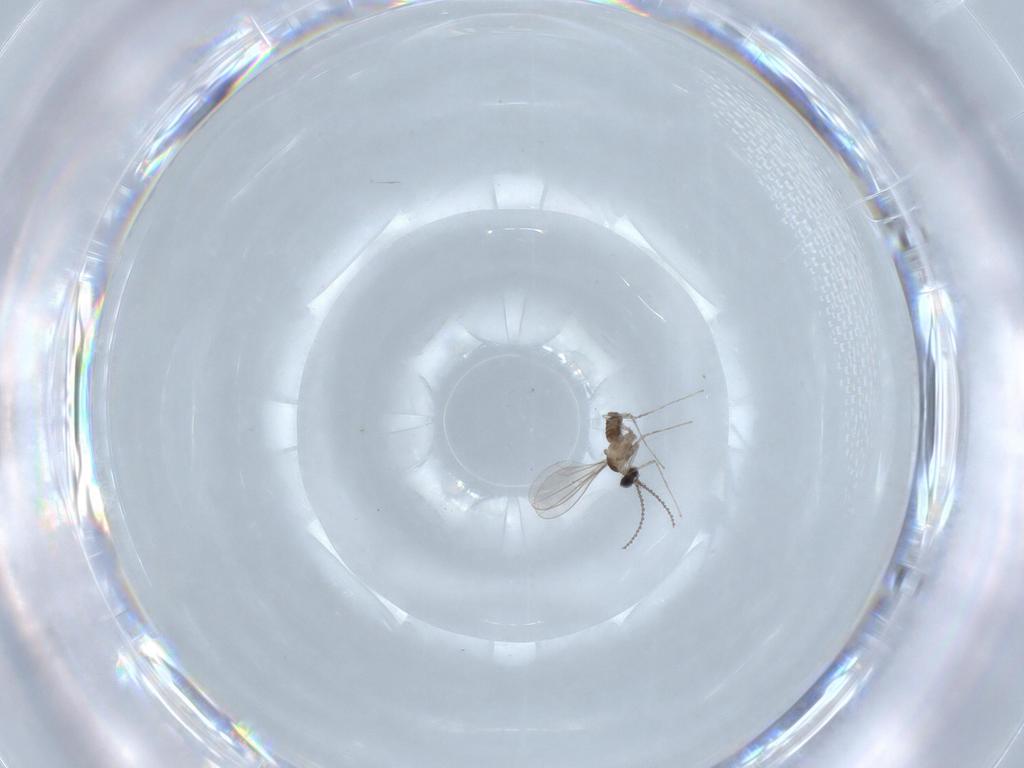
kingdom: Animalia
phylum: Arthropoda
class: Insecta
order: Diptera
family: Cecidomyiidae
